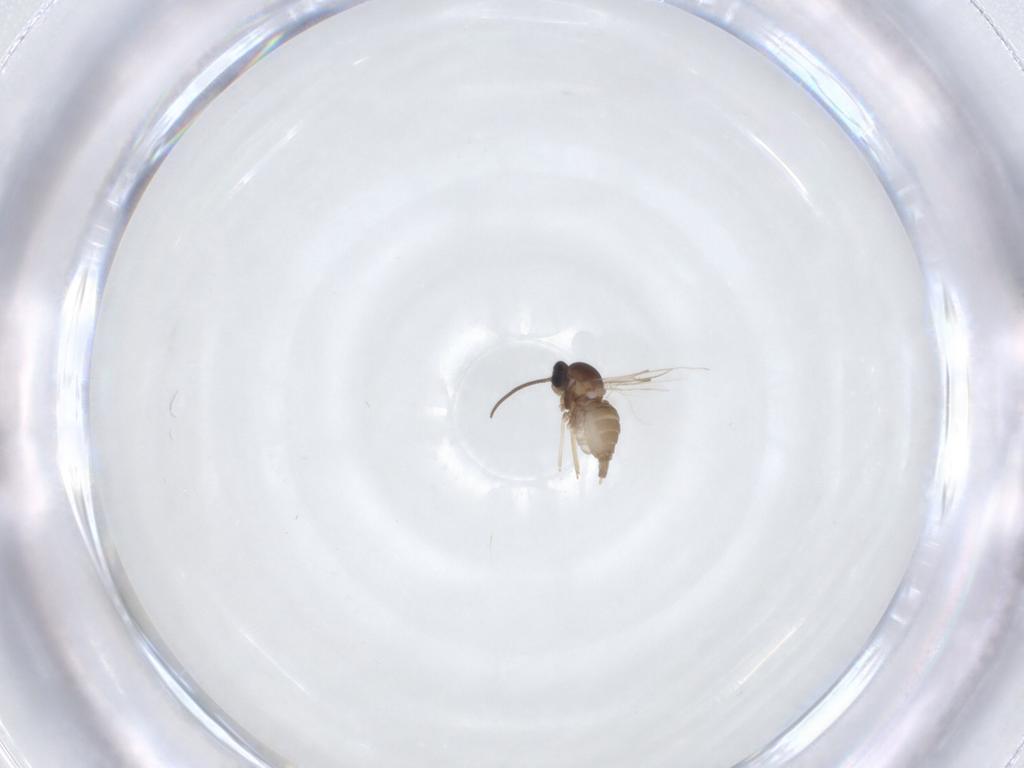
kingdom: Animalia
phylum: Arthropoda
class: Insecta
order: Diptera
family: Cecidomyiidae
